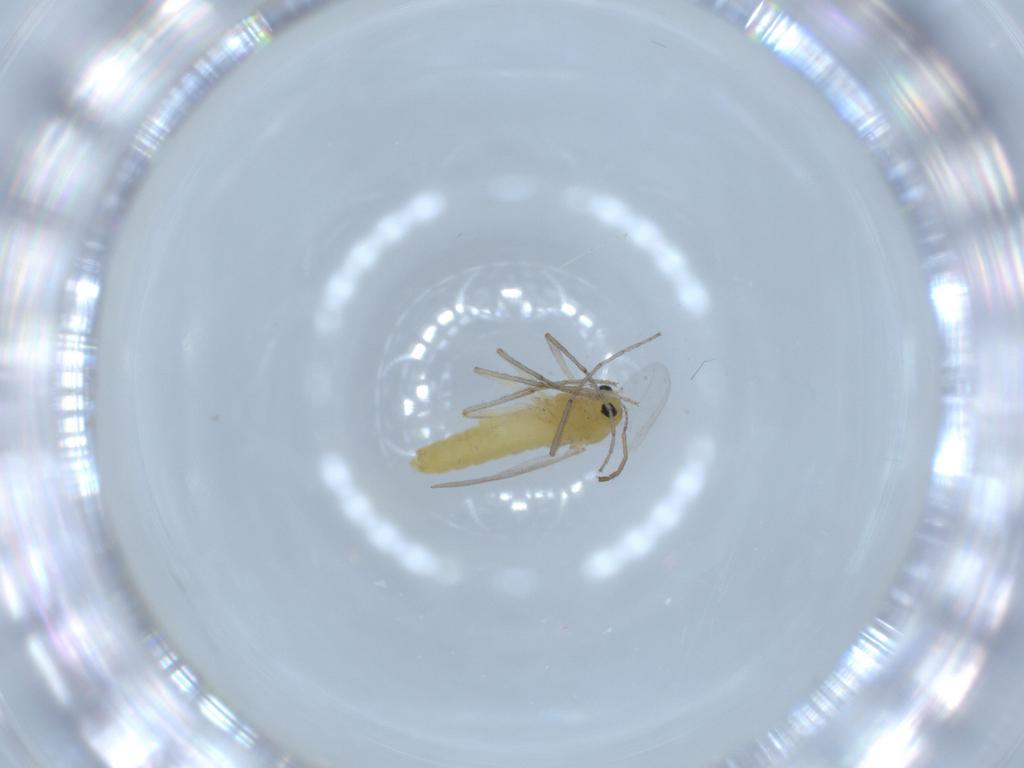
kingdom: Animalia
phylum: Arthropoda
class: Insecta
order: Diptera
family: Chironomidae
